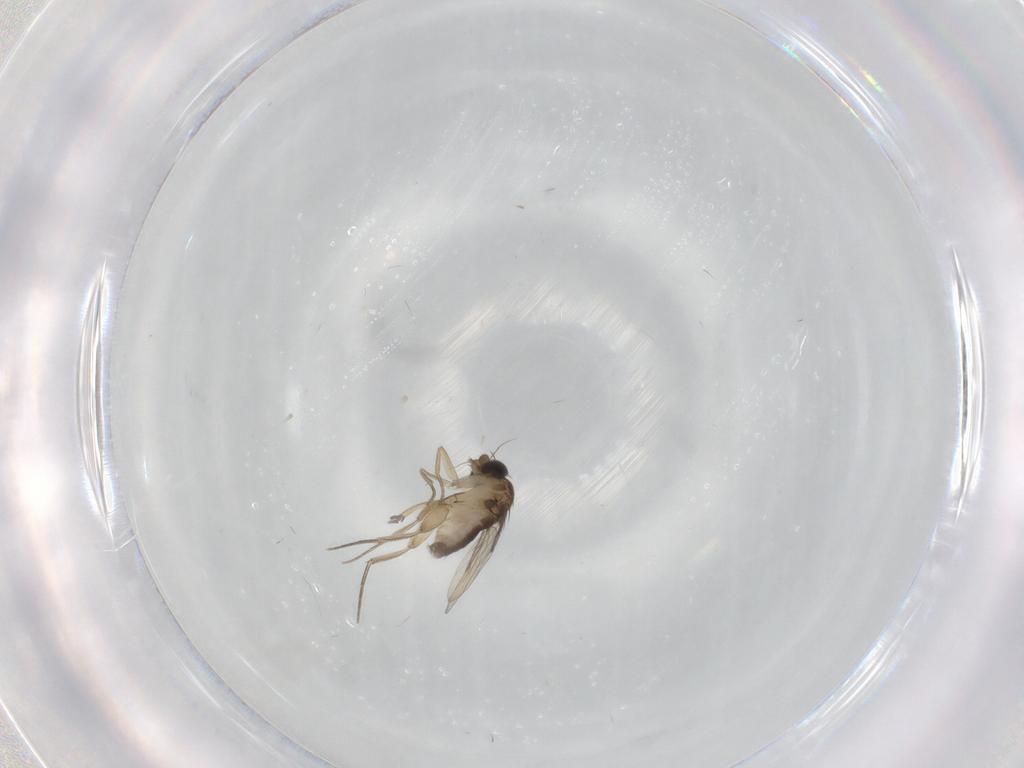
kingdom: Animalia
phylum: Arthropoda
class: Insecta
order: Diptera
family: Phoridae
